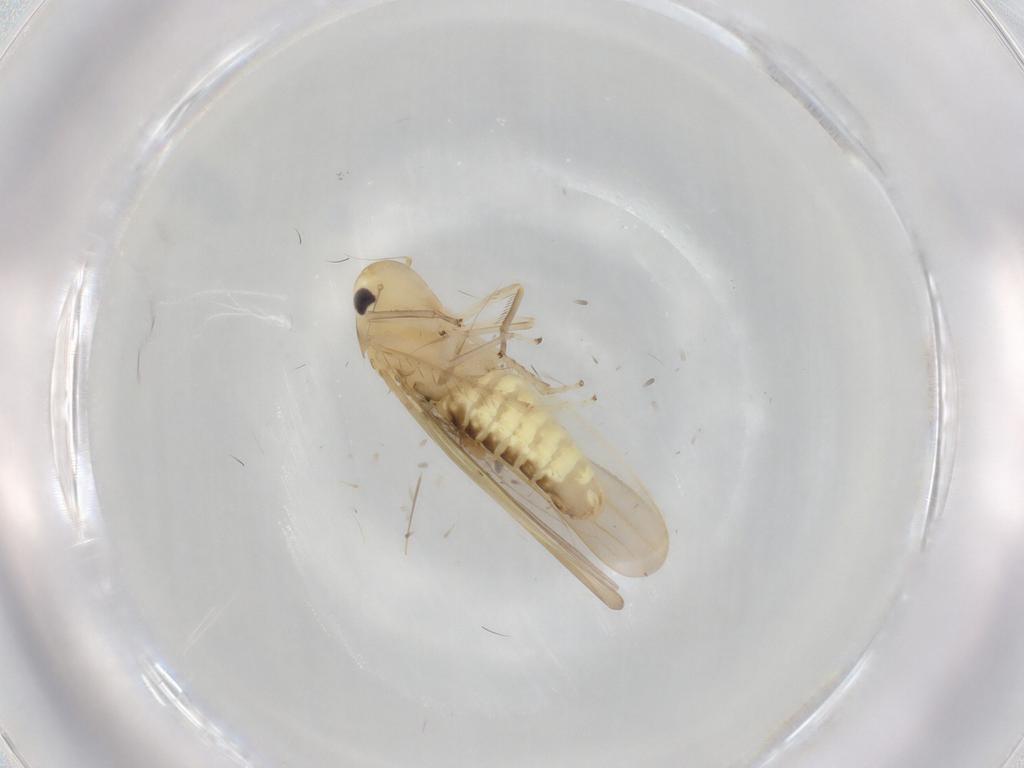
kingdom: Animalia
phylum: Arthropoda
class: Insecta
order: Hemiptera
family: Cicadellidae
